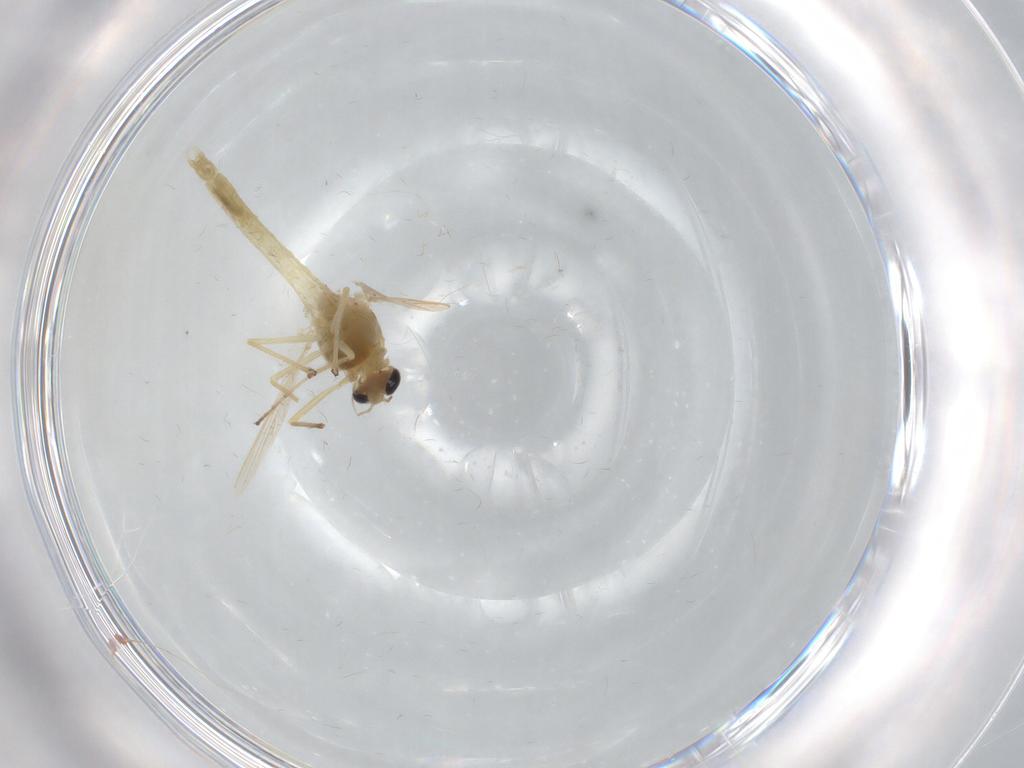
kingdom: Animalia
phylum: Arthropoda
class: Insecta
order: Diptera
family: Chironomidae
